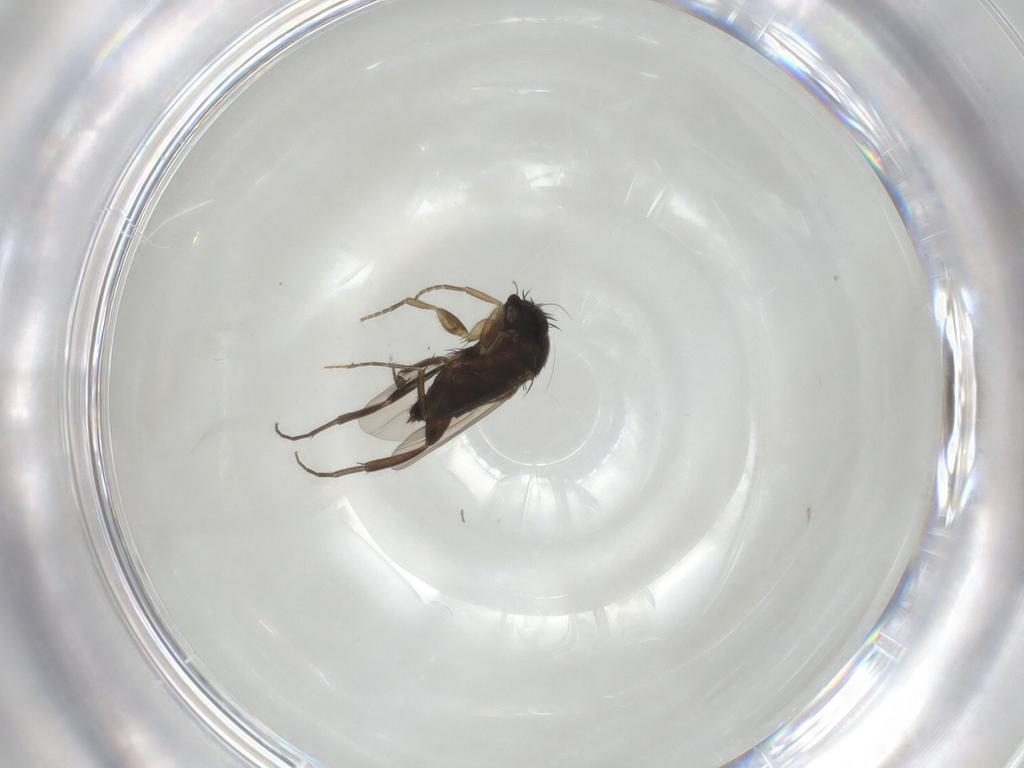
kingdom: Animalia
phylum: Arthropoda
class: Insecta
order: Diptera
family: Phoridae
